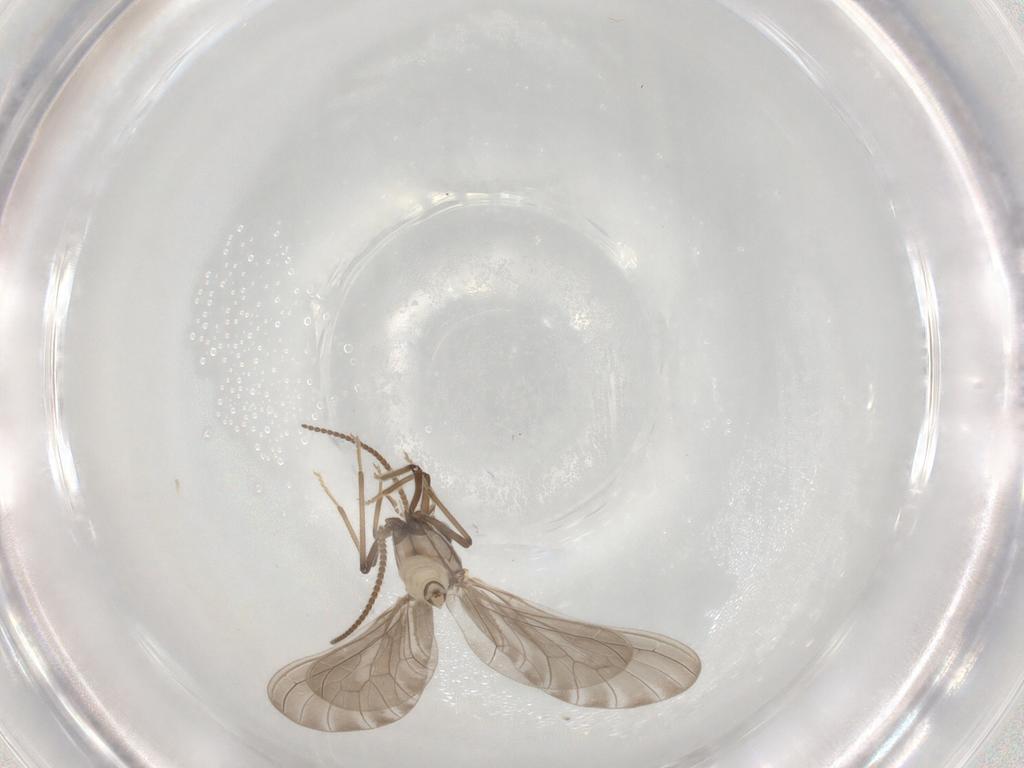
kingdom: Animalia
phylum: Arthropoda
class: Insecta
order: Neuroptera
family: Coniopterygidae
